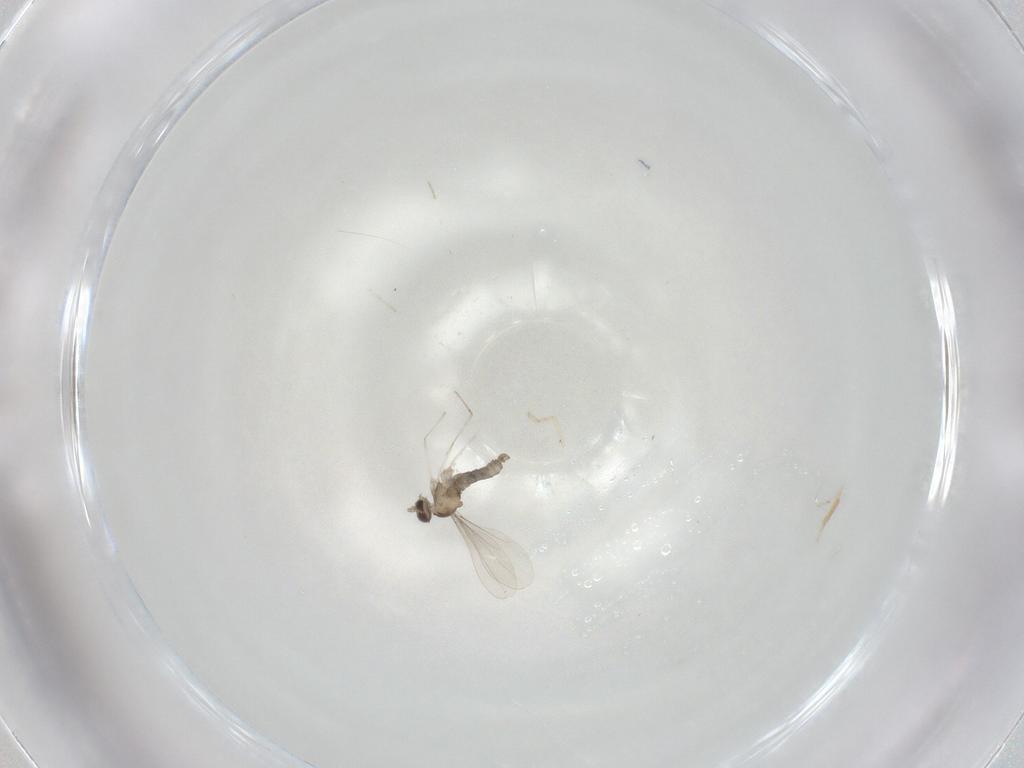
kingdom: Animalia
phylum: Arthropoda
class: Insecta
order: Diptera
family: Cecidomyiidae
